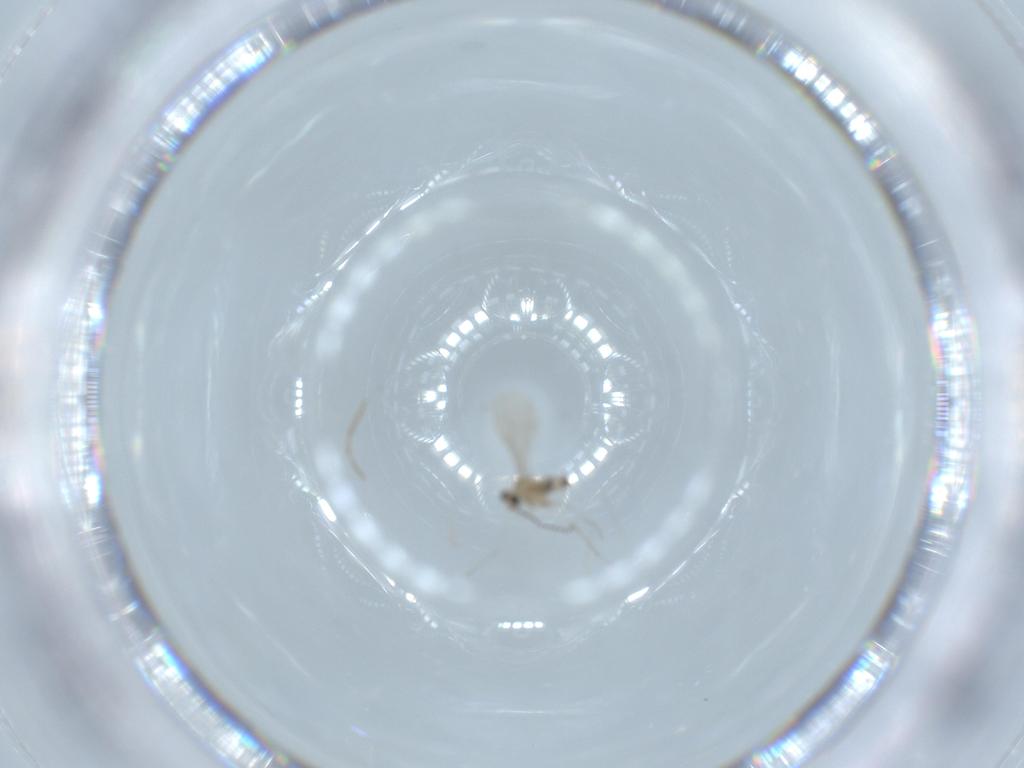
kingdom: Animalia
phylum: Arthropoda
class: Insecta
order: Diptera
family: Cecidomyiidae
